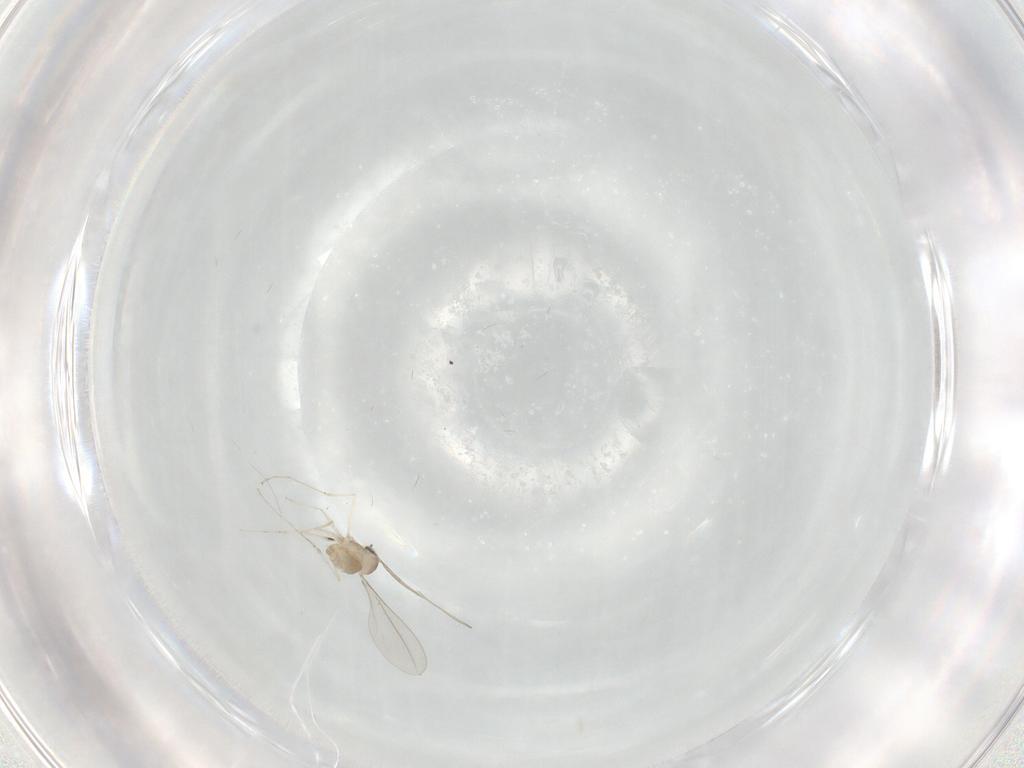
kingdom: Animalia
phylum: Arthropoda
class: Insecta
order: Diptera
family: Cecidomyiidae
